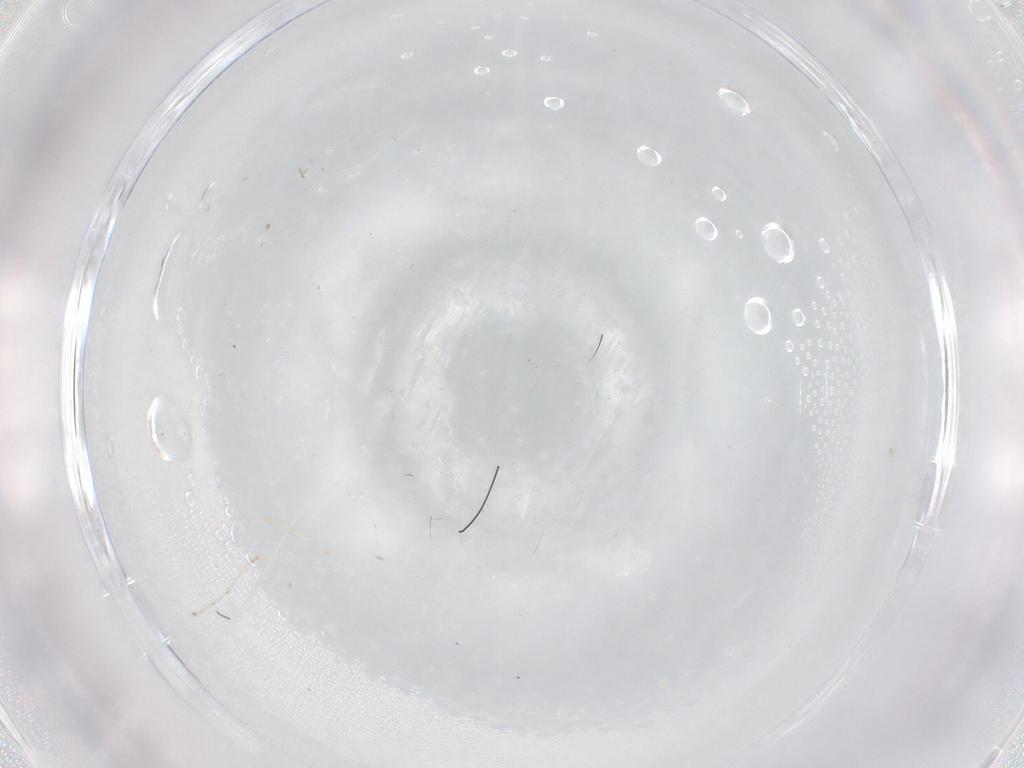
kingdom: Animalia
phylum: Arthropoda
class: Insecta
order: Diptera
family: Cecidomyiidae
